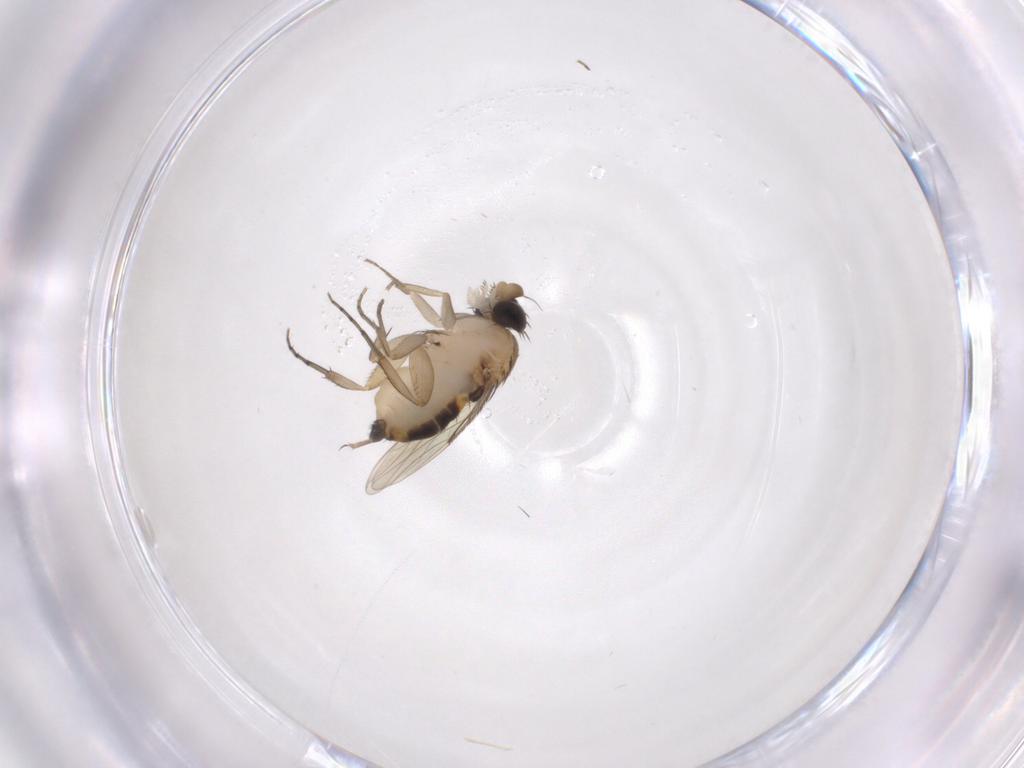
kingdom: Animalia
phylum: Arthropoda
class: Insecta
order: Diptera
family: Phoridae
